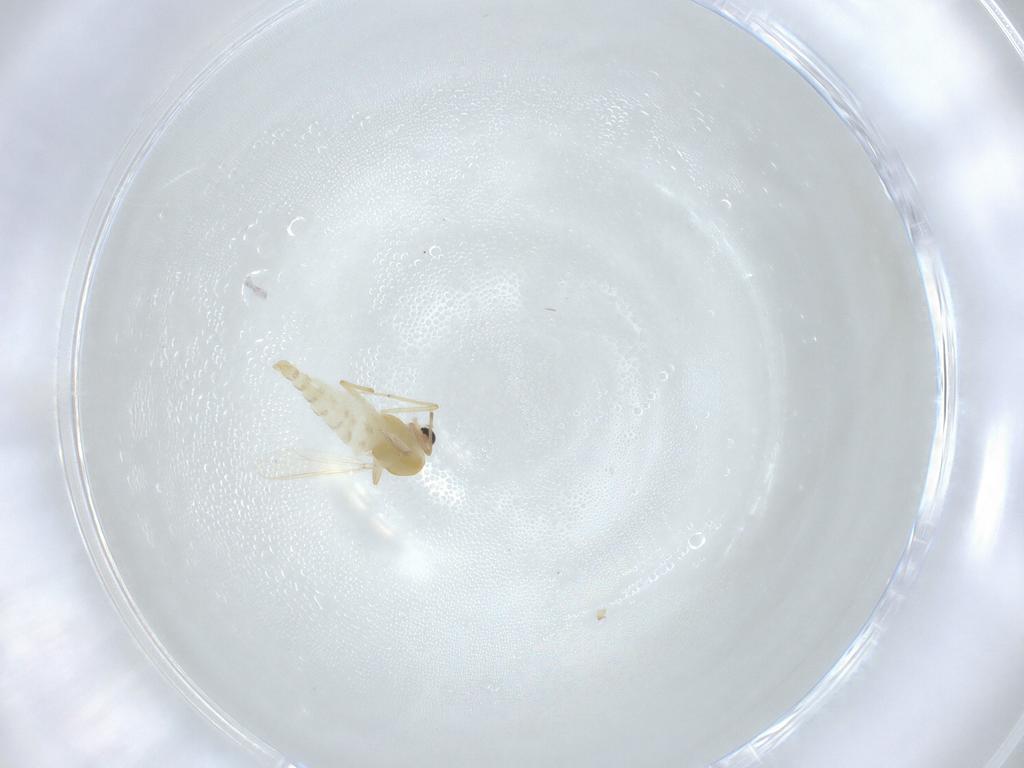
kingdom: Animalia
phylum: Arthropoda
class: Insecta
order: Diptera
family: Chironomidae
